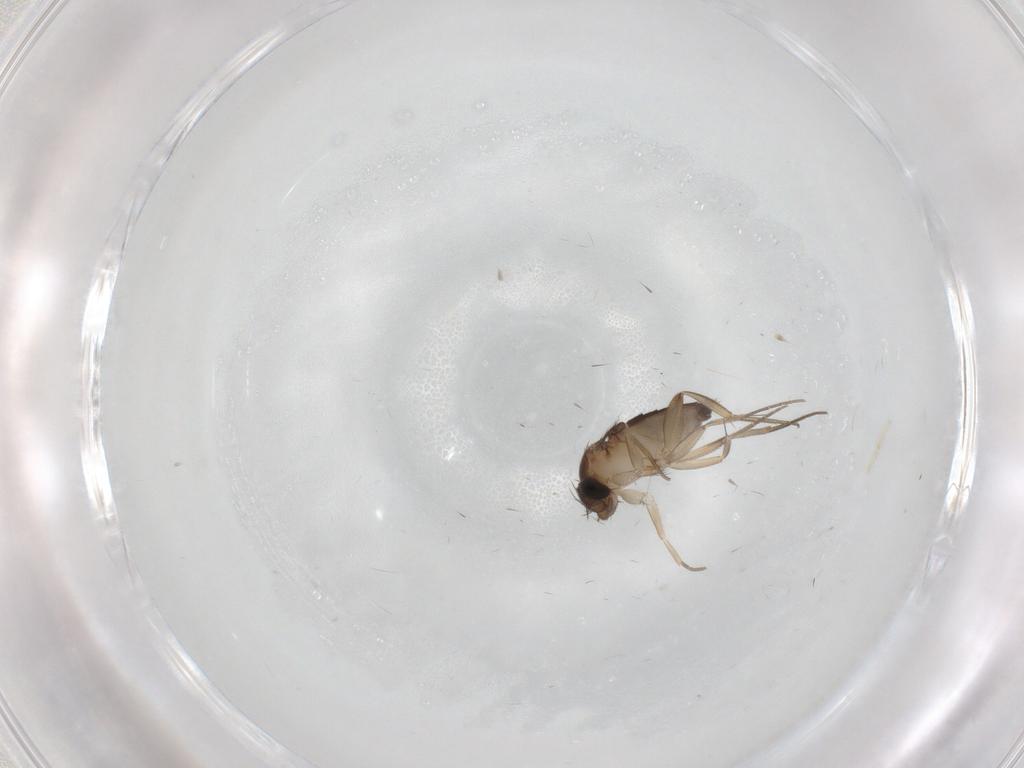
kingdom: Animalia
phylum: Arthropoda
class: Insecta
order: Diptera
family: Phoridae
